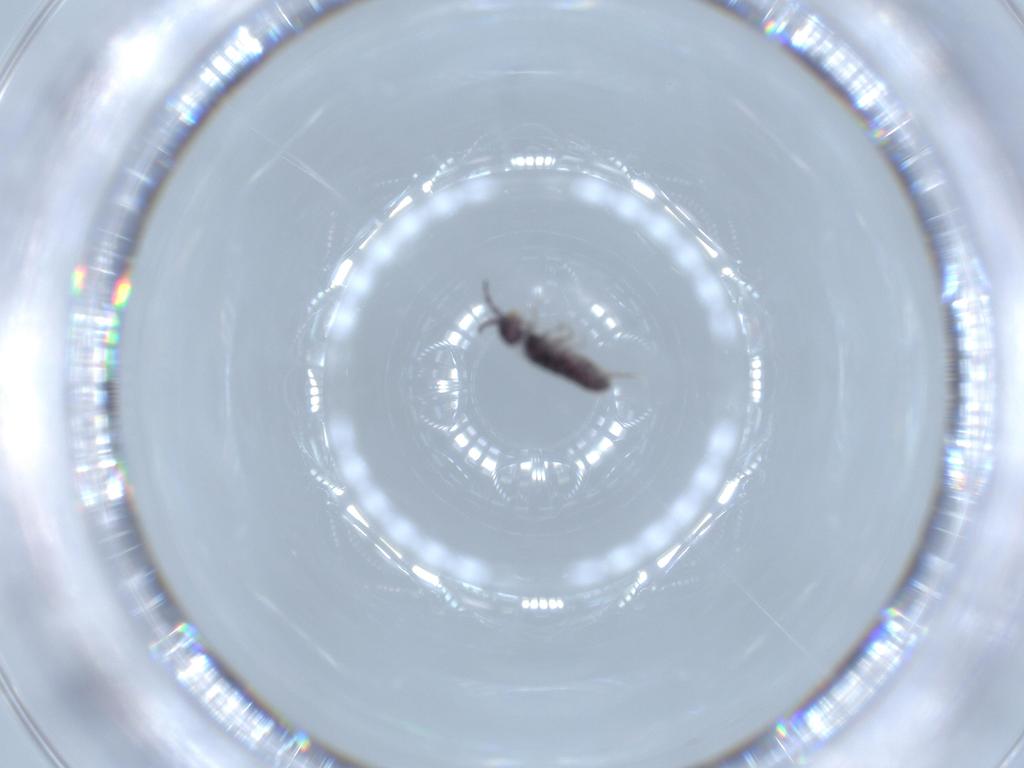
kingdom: Animalia
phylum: Arthropoda
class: Collembola
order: Entomobryomorpha
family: Isotomidae
